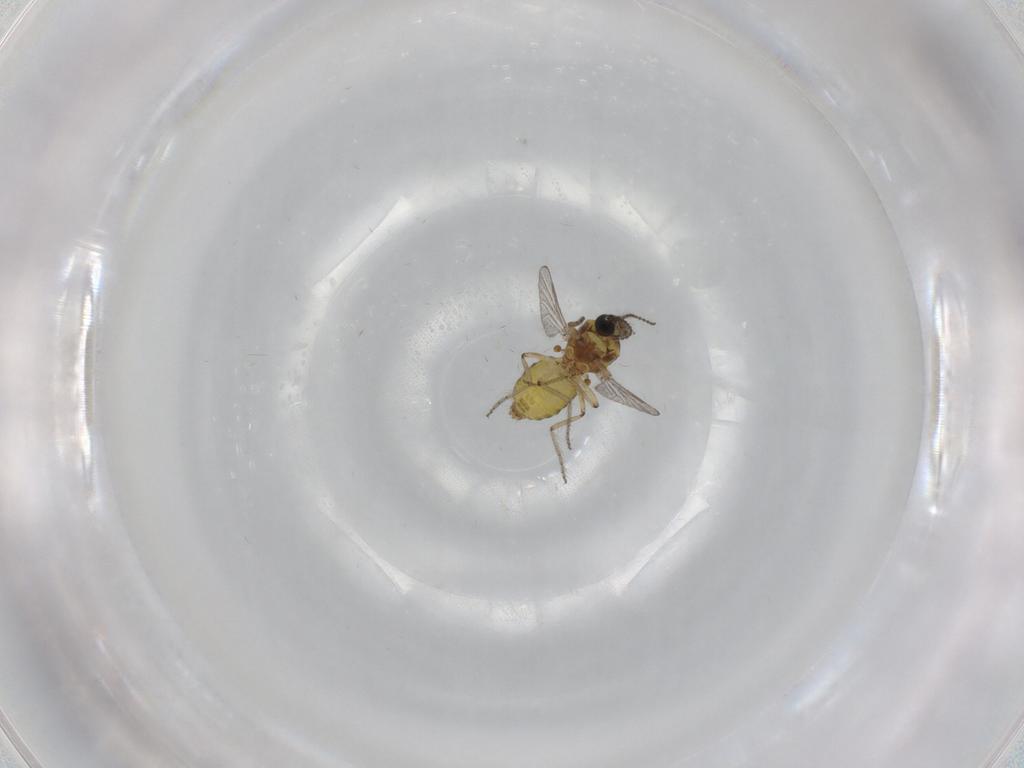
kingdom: Animalia
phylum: Arthropoda
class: Insecta
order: Diptera
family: Ceratopogonidae
